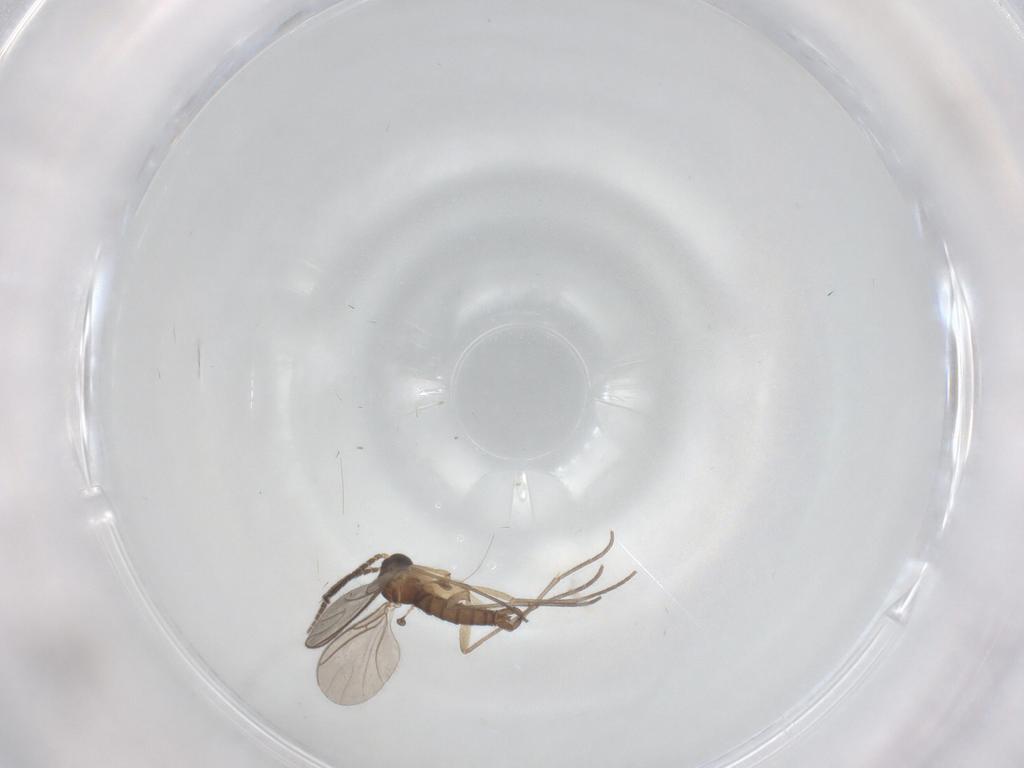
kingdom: Animalia
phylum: Arthropoda
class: Insecta
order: Diptera
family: Sciaridae
